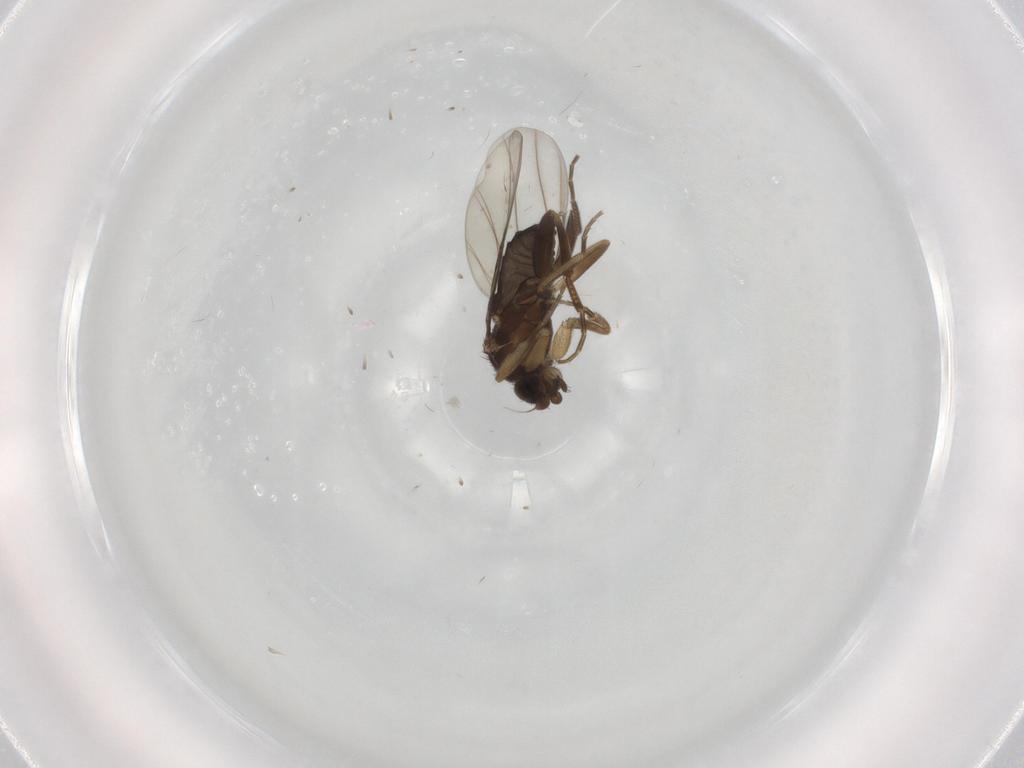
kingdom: Animalia
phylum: Arthropoda
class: Insecta
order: Diptera
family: Phoridae
